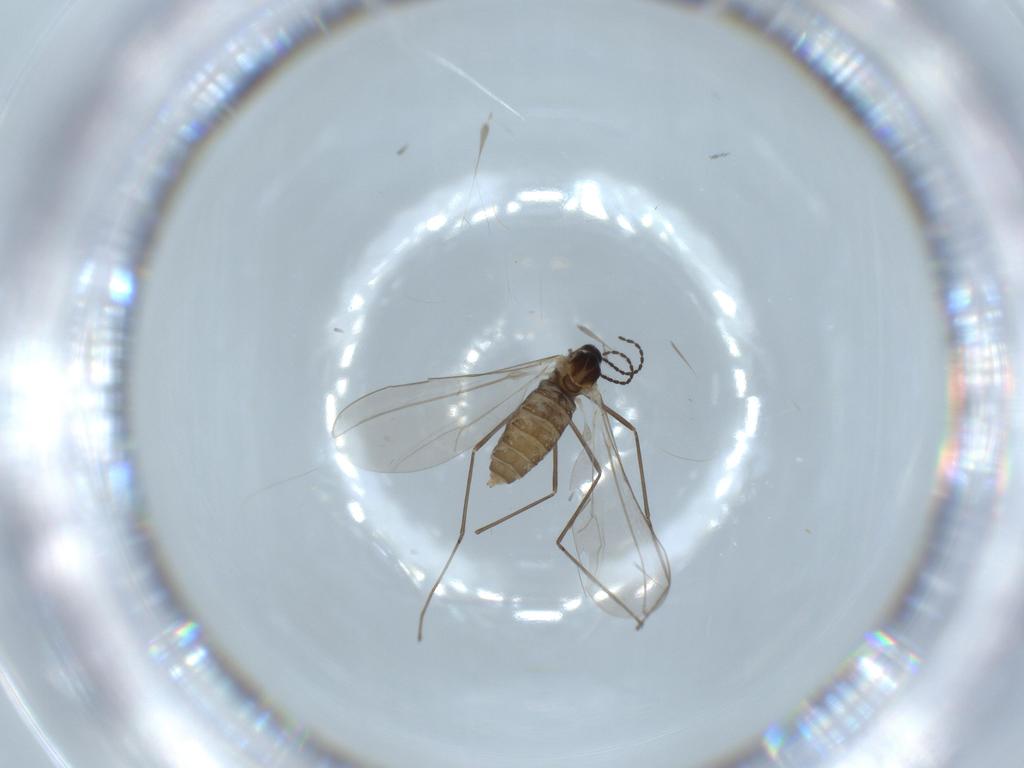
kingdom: Animalia
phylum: Arthropoda
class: Insecta
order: Diptera
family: Cecidomyiidae
